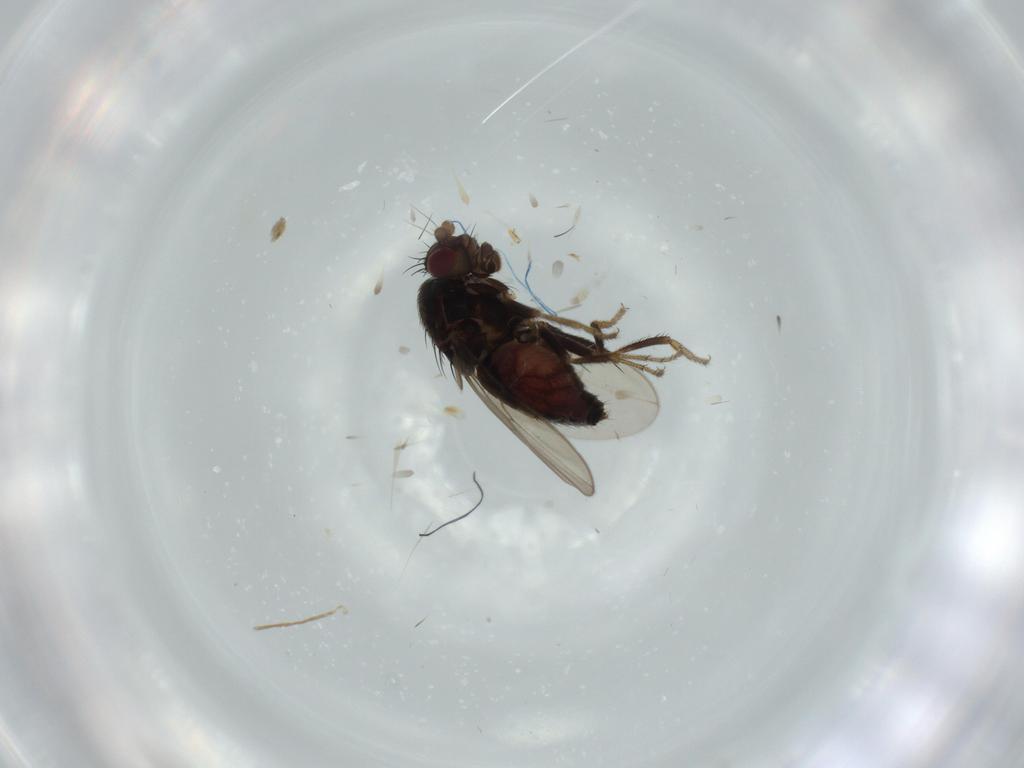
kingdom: Animalia
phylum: Arthropoda
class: Insecta
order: Diptera
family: Sphaeroceridae
